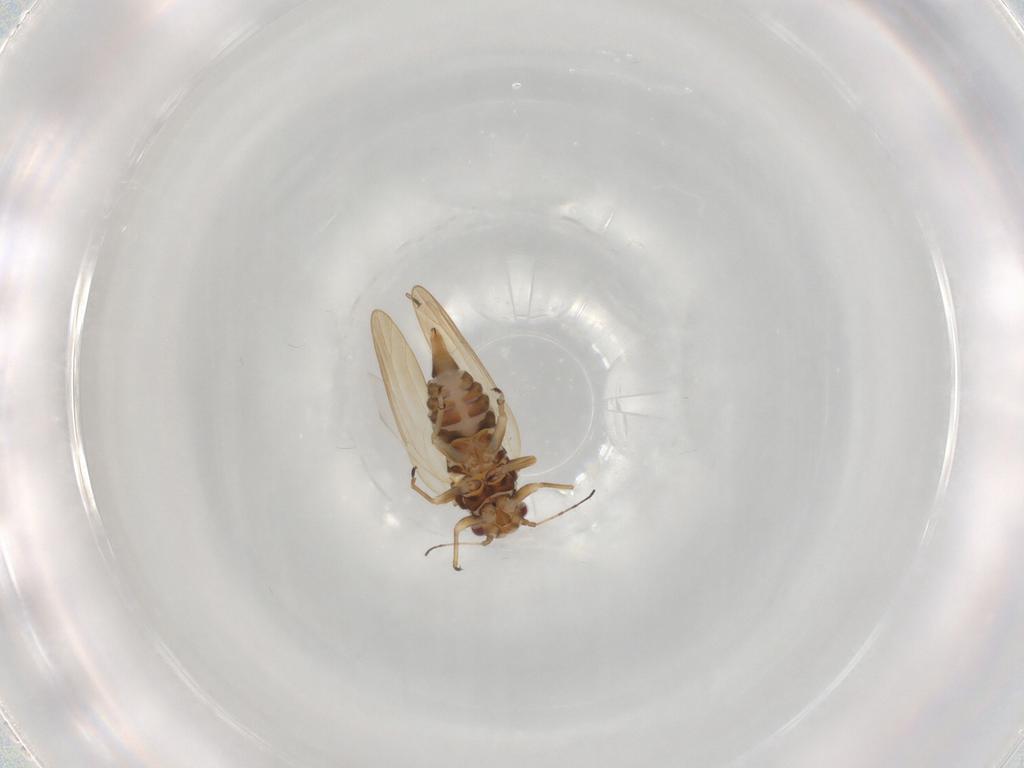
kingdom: Animalia
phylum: Arthropoda
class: Insecta
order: Hemiptera
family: Psylloidea_incertae_sedis
